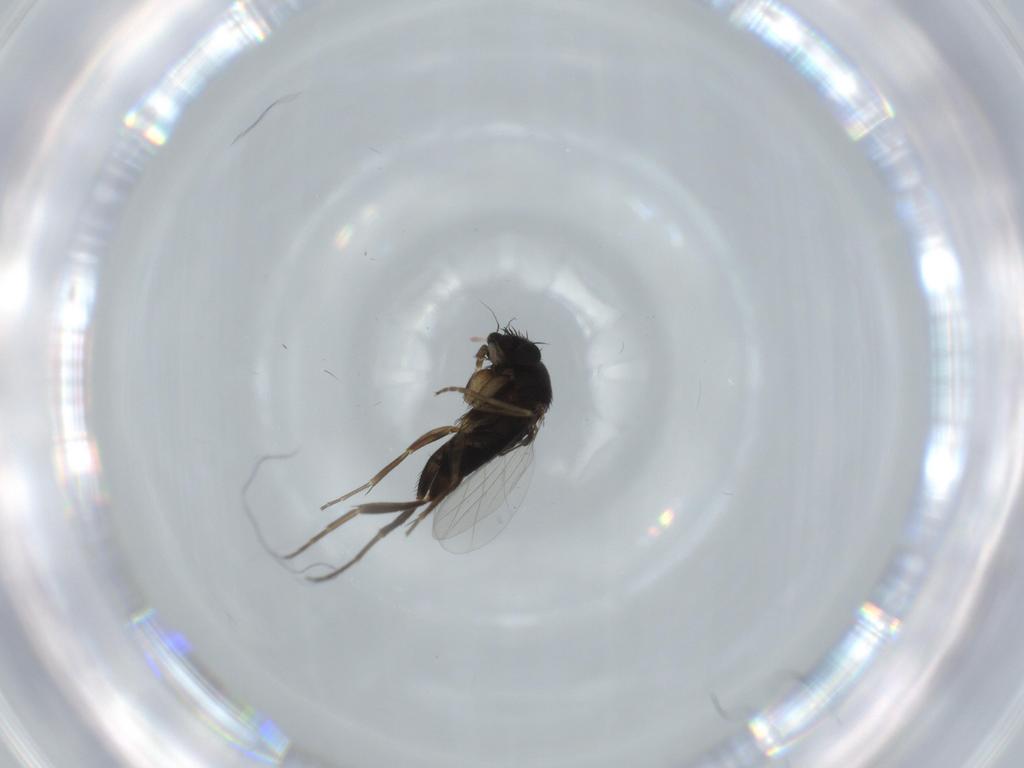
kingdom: Animalia
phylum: Arthropoda
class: Insecta
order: Diptera
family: Phoridae
